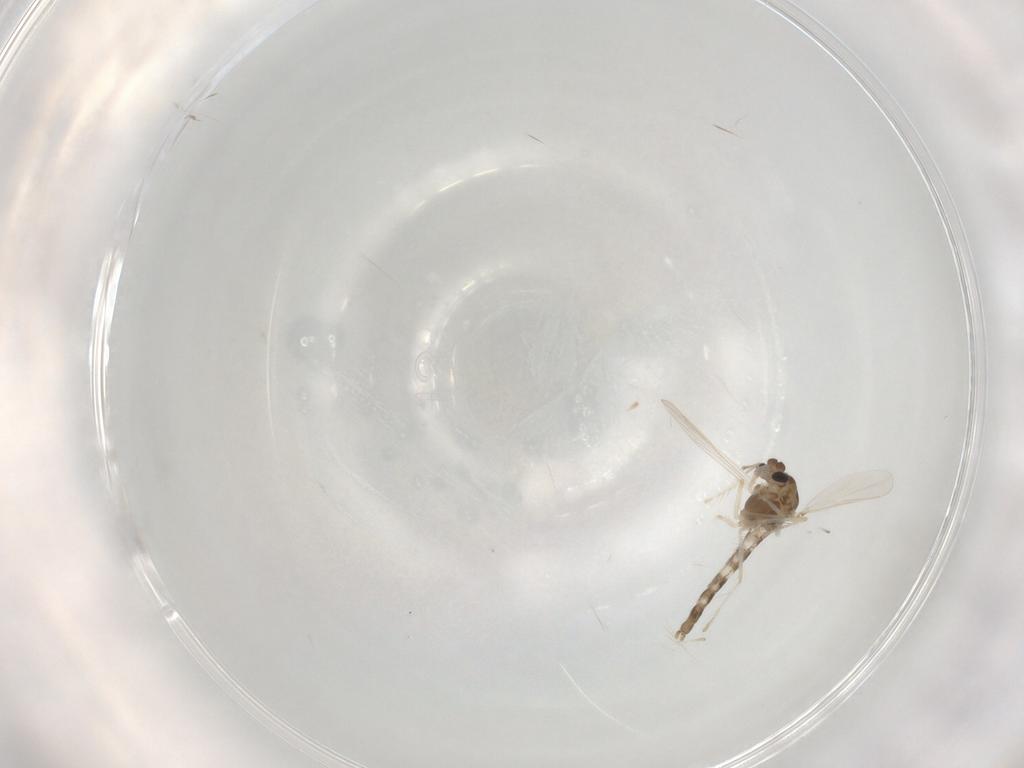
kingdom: Animalia
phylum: Arthropoda
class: Insecta
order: Diptera
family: Chironomidae
